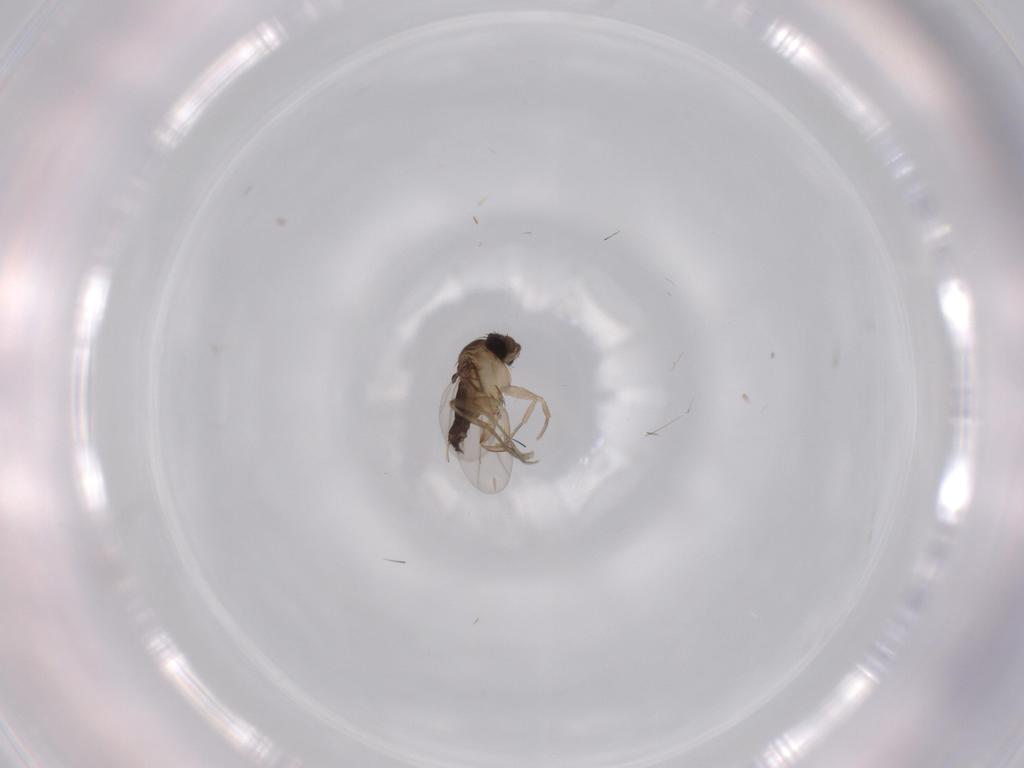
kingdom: Animalia
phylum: Arthropoda
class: Insecta
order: Diptera
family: Phoridae
